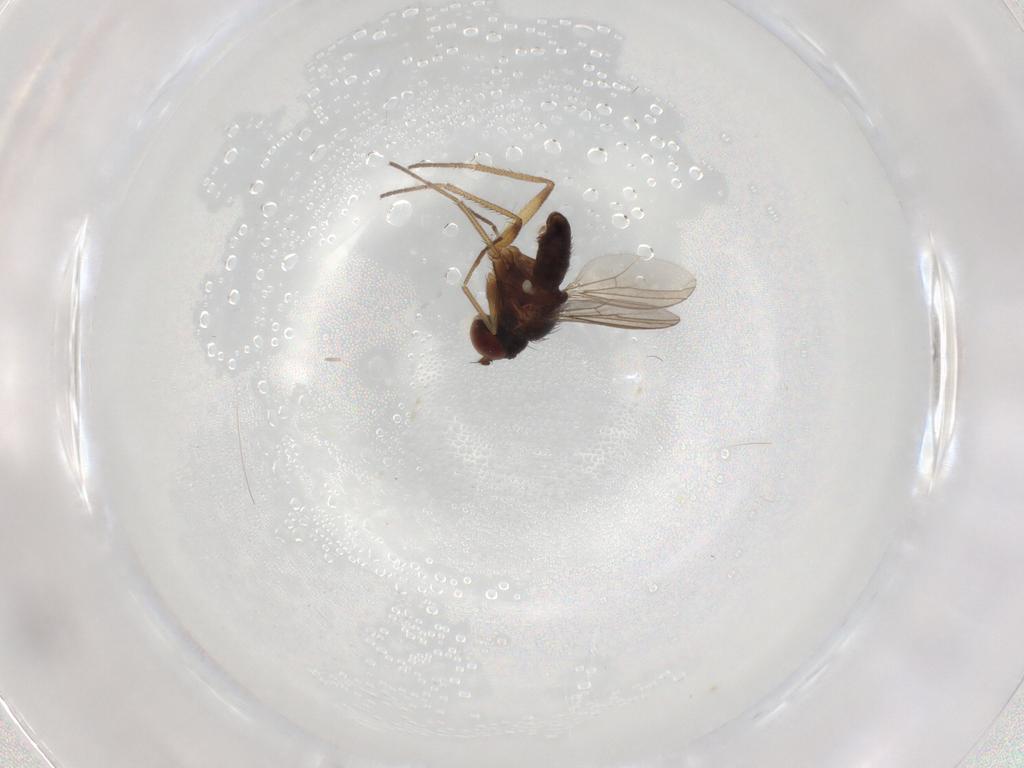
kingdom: Animalia
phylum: Arthropoda
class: Insecta
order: Diptera
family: Dolichopodidae
